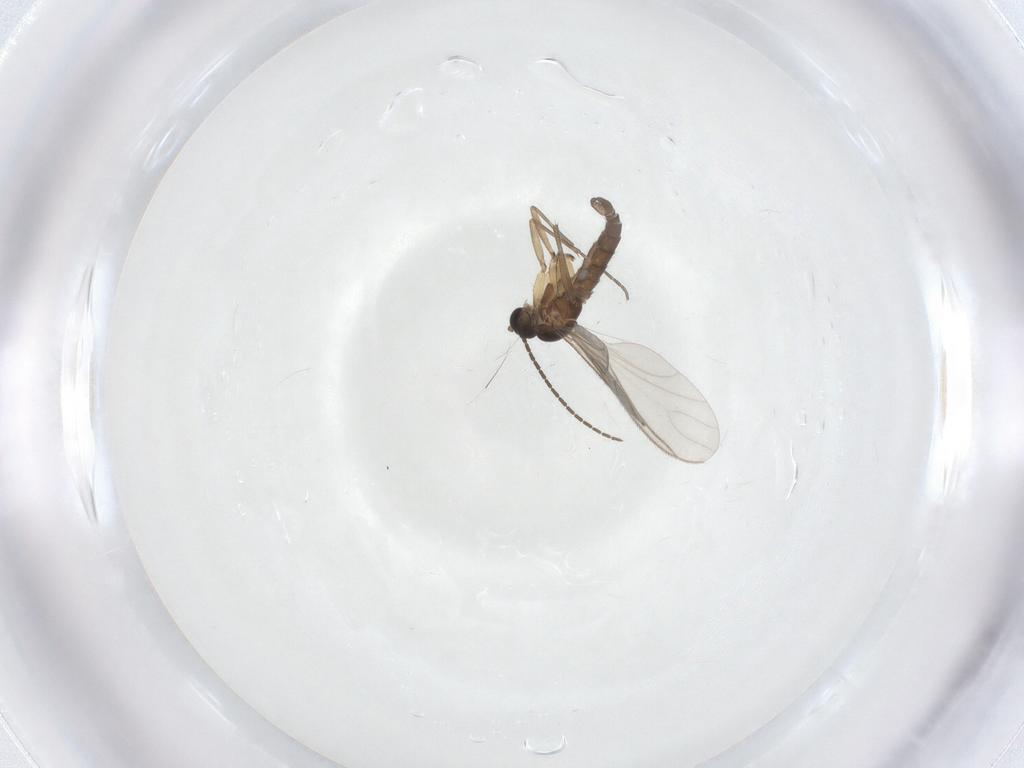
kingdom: Animalia
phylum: Arthropoda
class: Insecta
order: Diptera
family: Sciaridae
